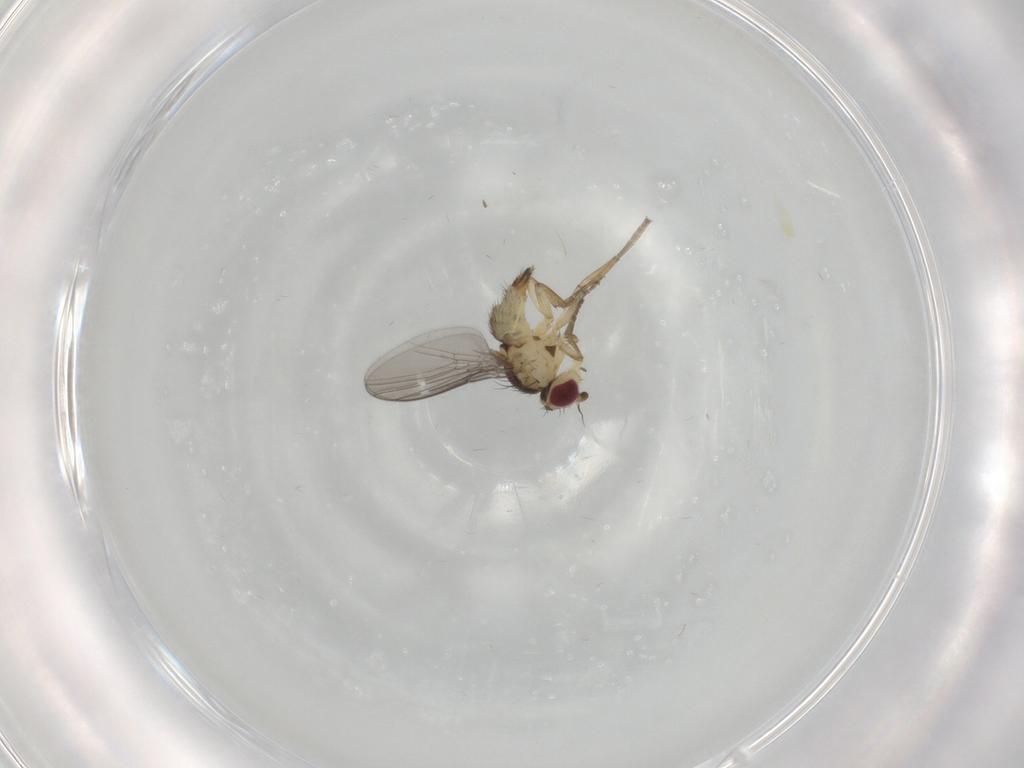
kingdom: Animalia
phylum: Arthropoda
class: Insecta
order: Diptera
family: Agromyzidae
